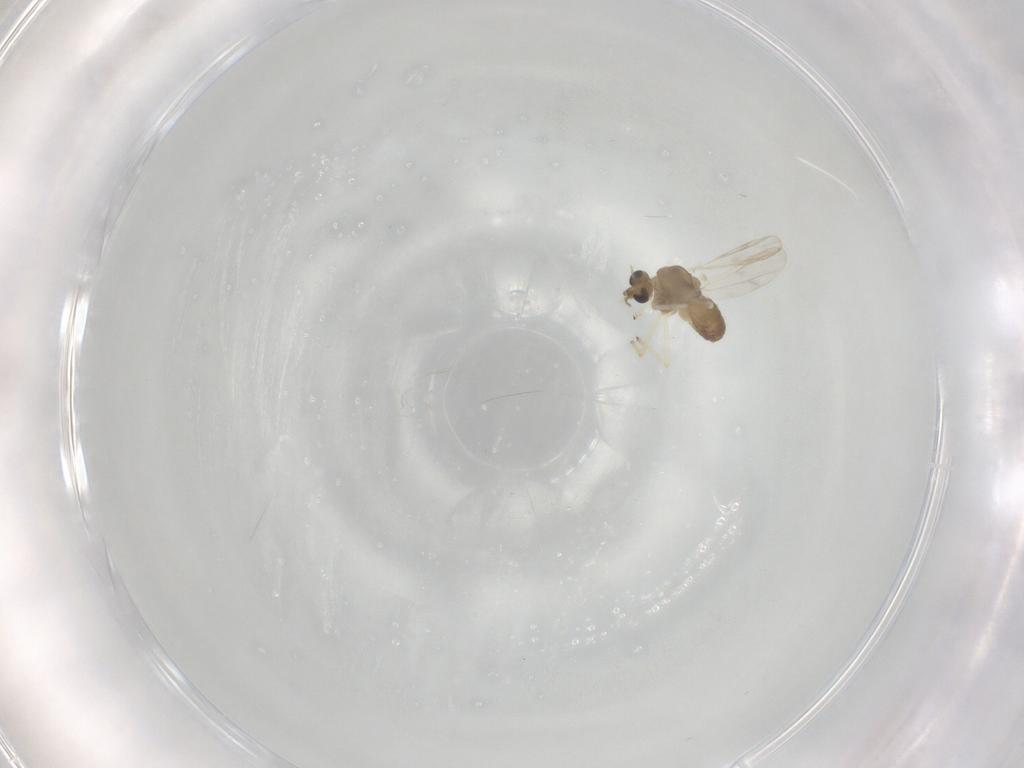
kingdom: Animalia
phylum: Arthropoda
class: Insecta
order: Diptera
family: Chironomidae
